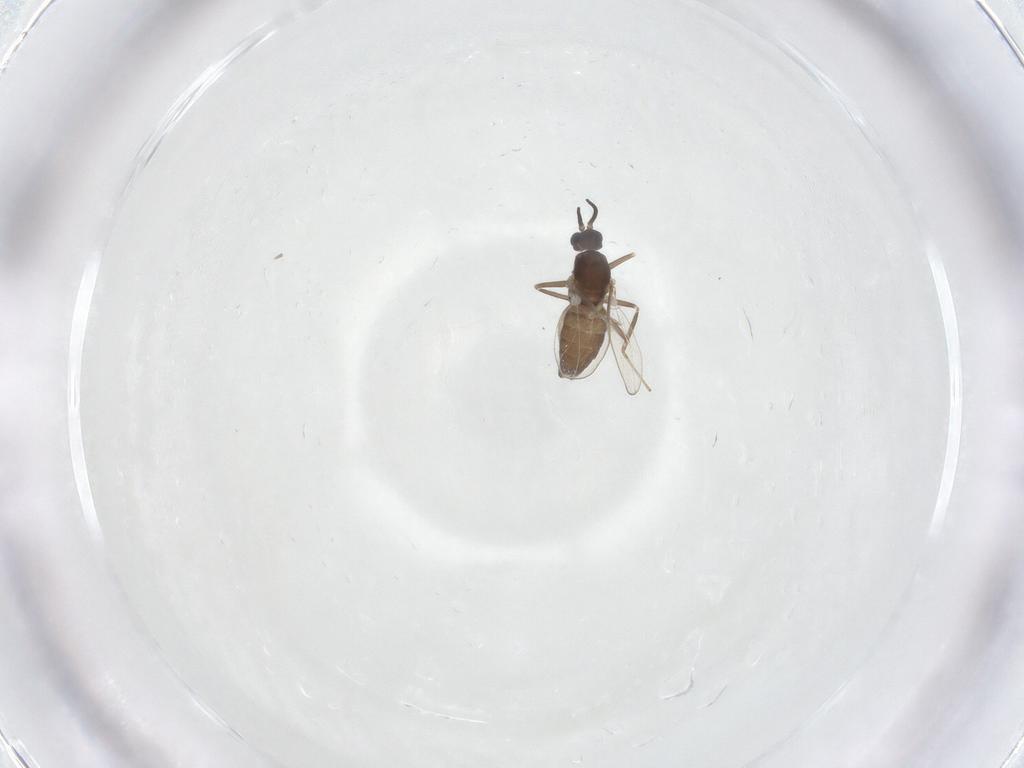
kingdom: Animalia
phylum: Arthropoda
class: Insecta
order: Diptera
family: Cecidomyiidae
